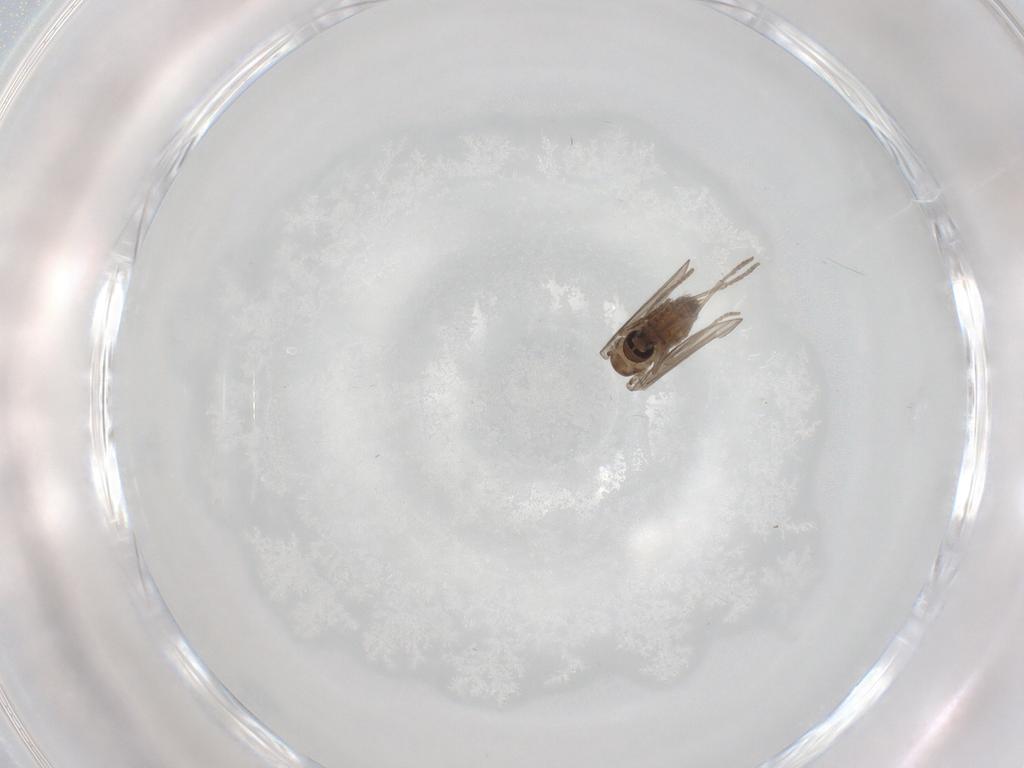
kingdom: Animalia
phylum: Arthropoda
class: Insecta
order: Diptera
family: Psychodidae
